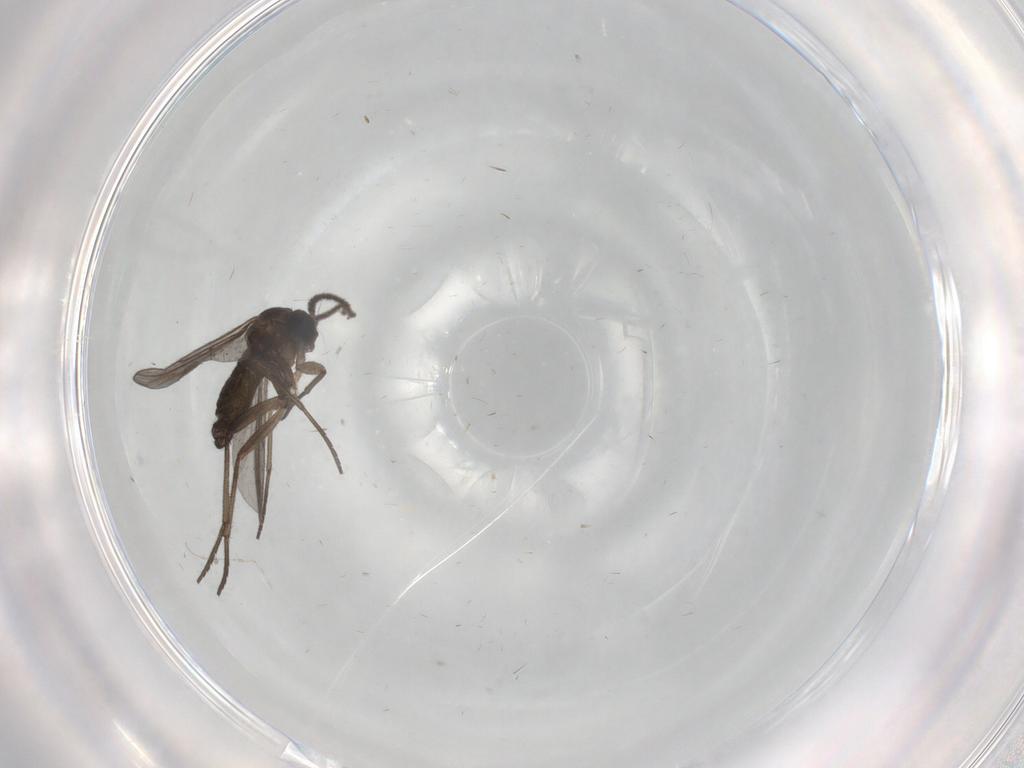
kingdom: Animalia
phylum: Arthropoda
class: Insecta
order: Diptera
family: Sciaridae
